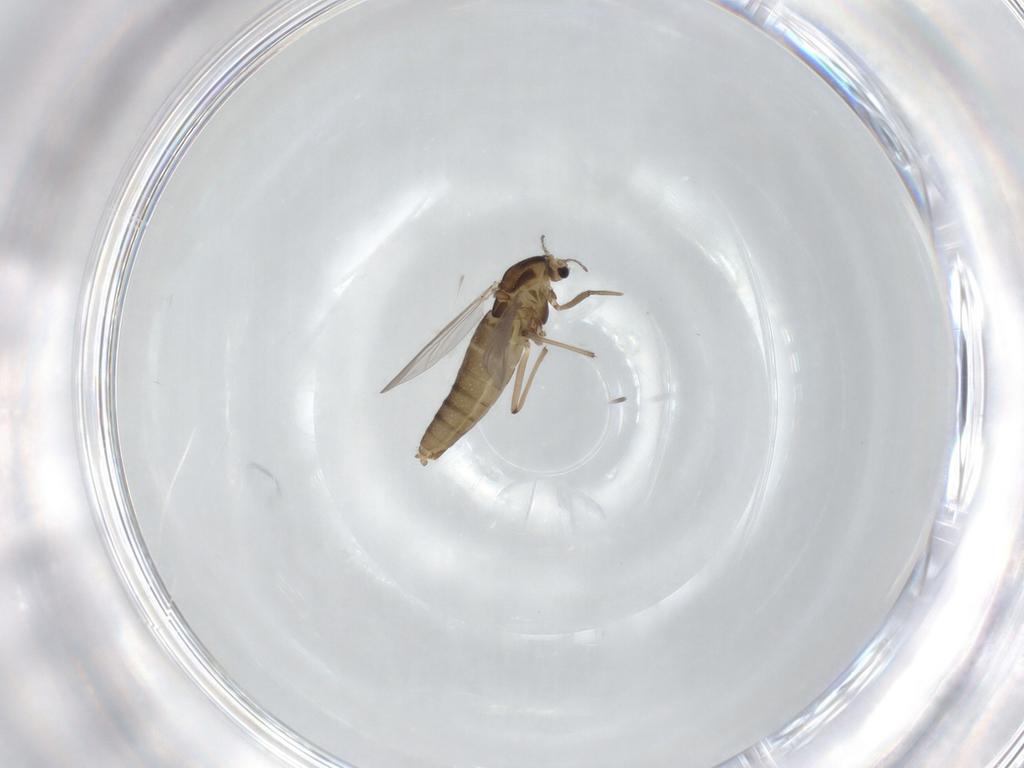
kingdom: Animalia
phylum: Arthropoda
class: Insecta
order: Diptera
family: Chironomidae
